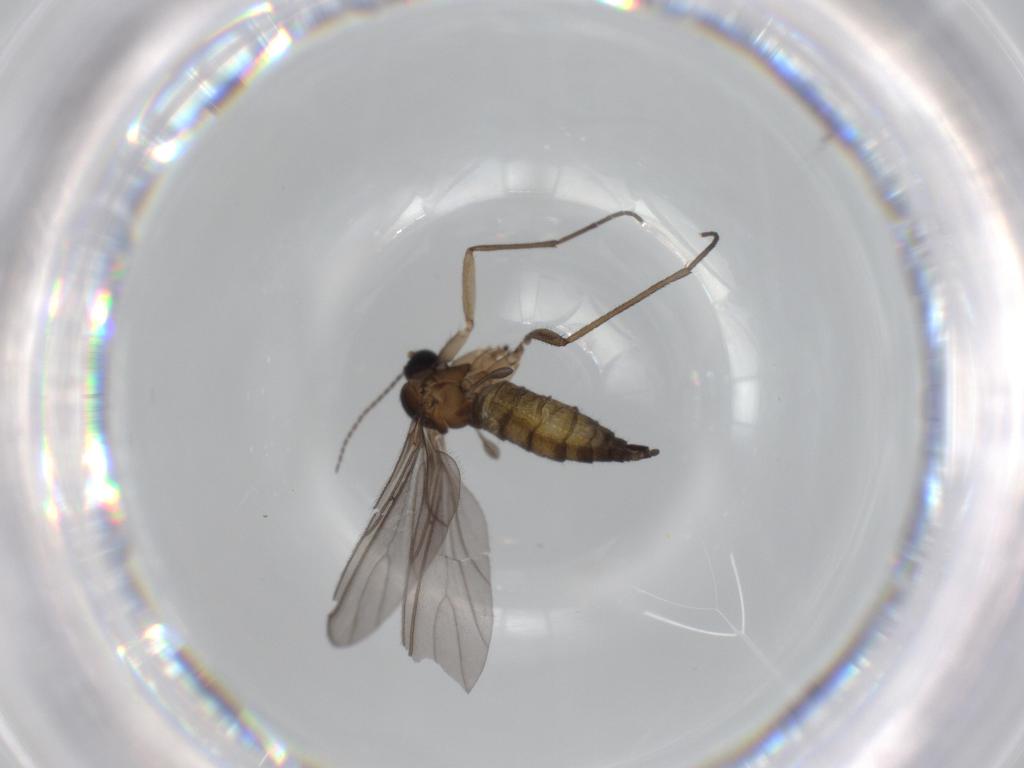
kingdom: Animalia
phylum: Arthropoda
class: Insecta
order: Diptera
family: Sciaridae
